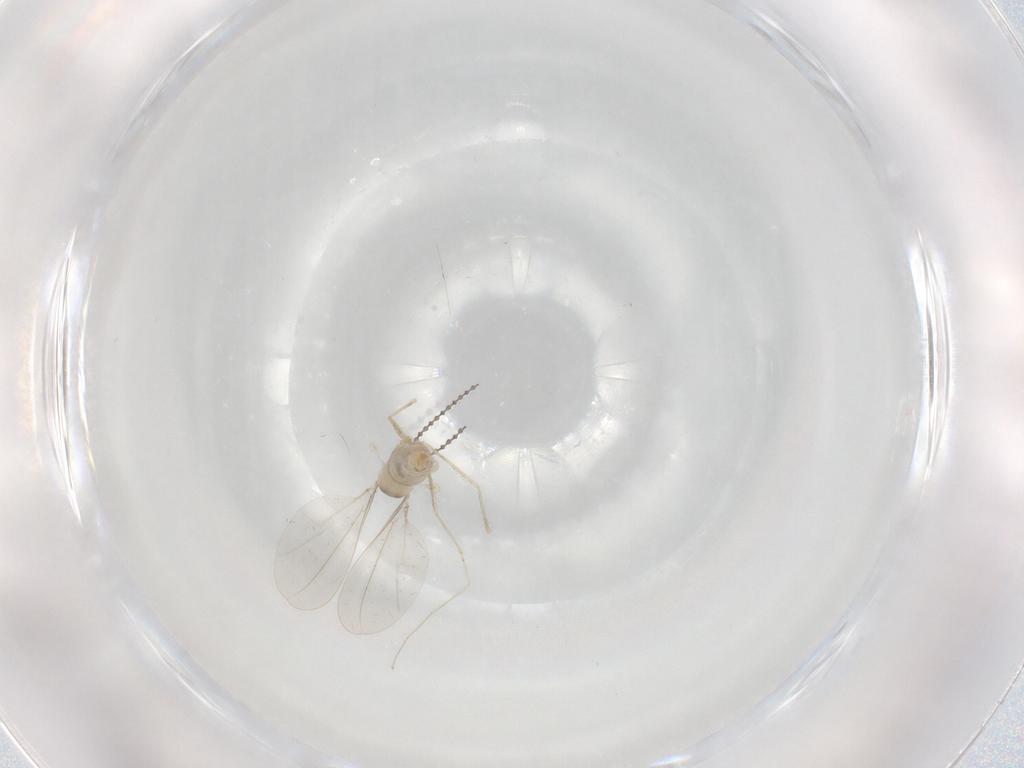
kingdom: Animalia
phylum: Arthropoda
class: Insecta
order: Diptera
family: Cecidomyiidae
